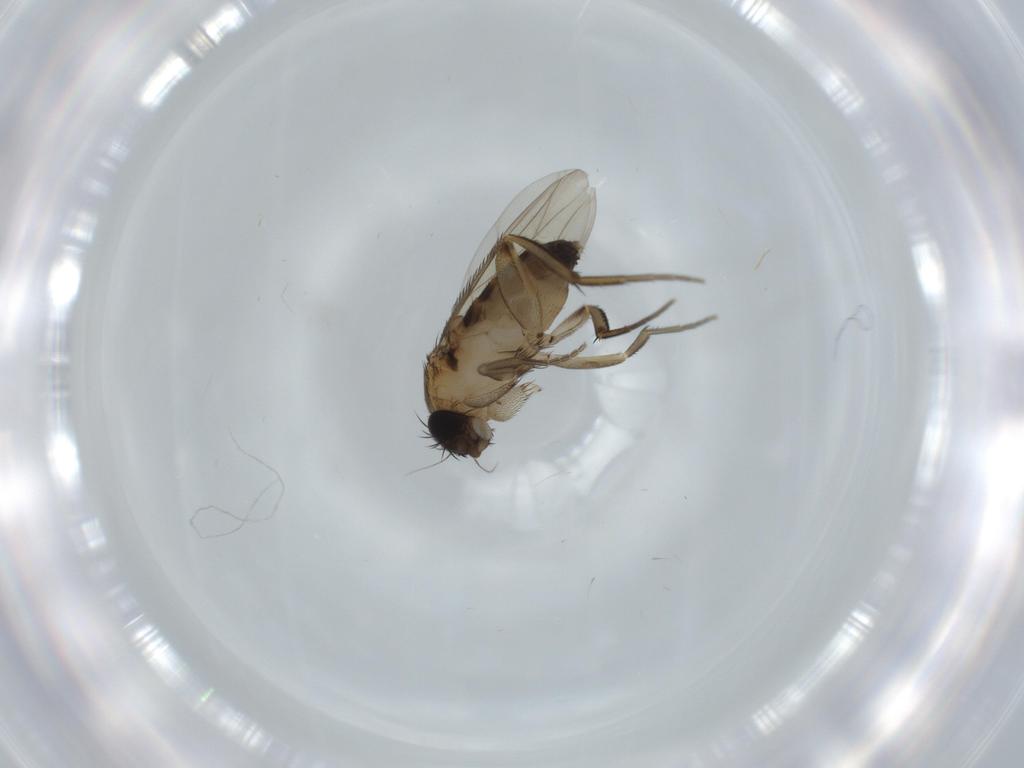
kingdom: Animalia
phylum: Arthropoda
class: Insecta
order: Diptera
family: Phoridae
